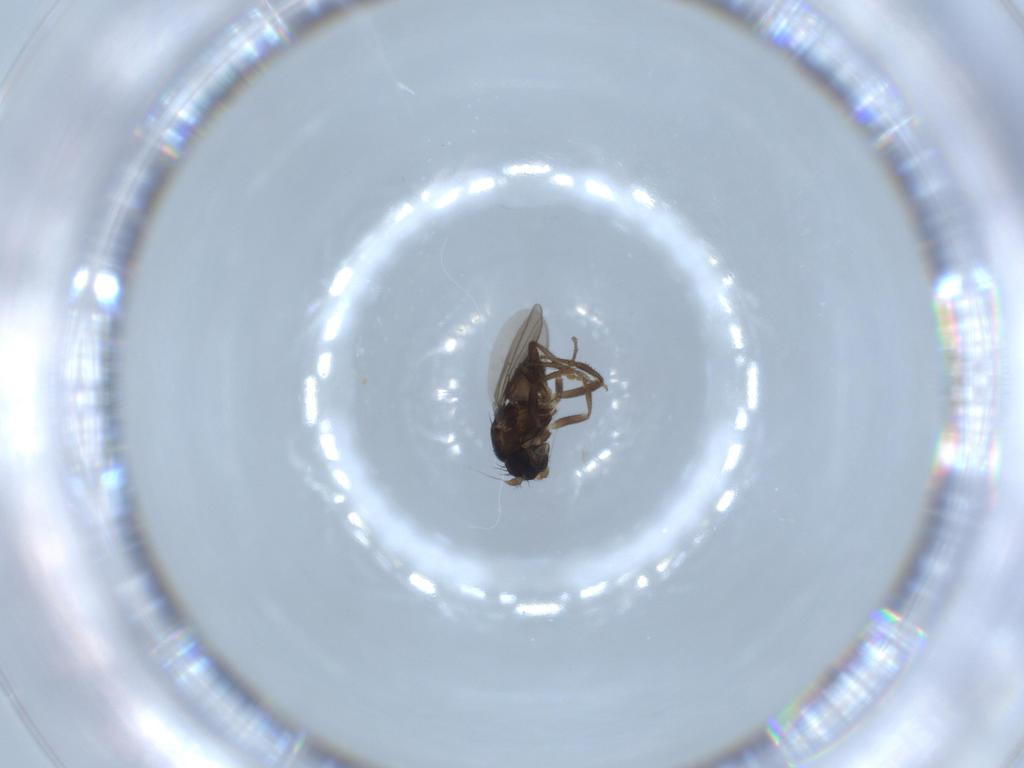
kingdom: Animalia
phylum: Arthropoda
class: Insecta
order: Diptera
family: Sphaeroceridae
